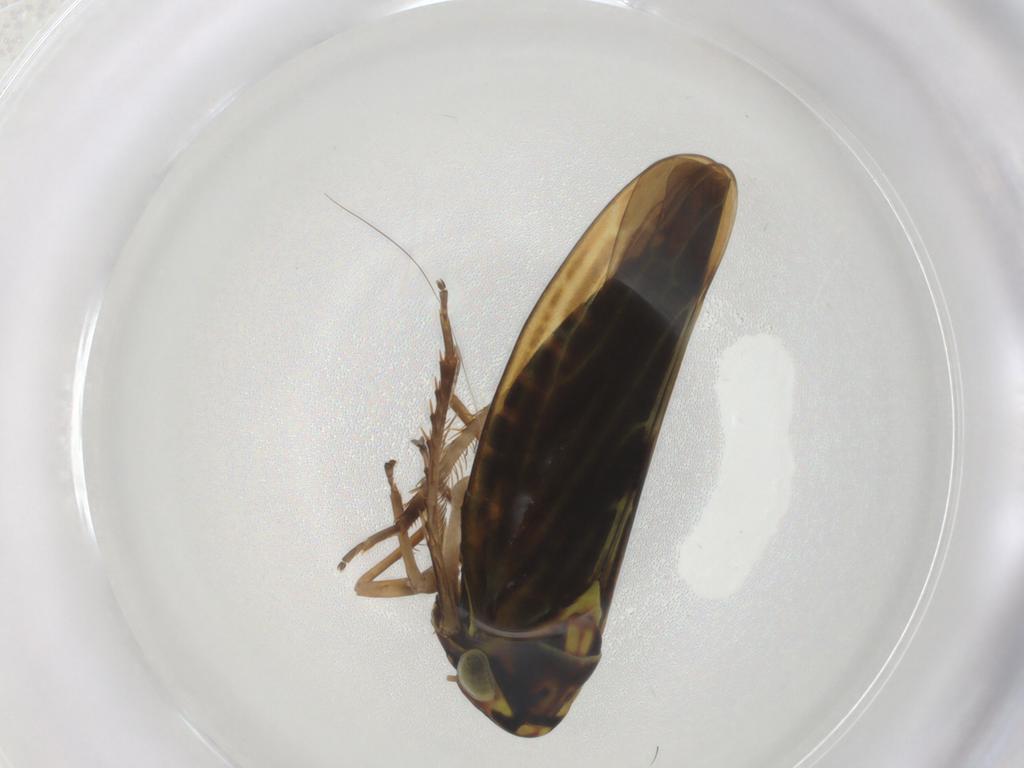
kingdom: Animalia
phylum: Arthropoda
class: Insecta
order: Hemiptera
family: Cicadellidae
